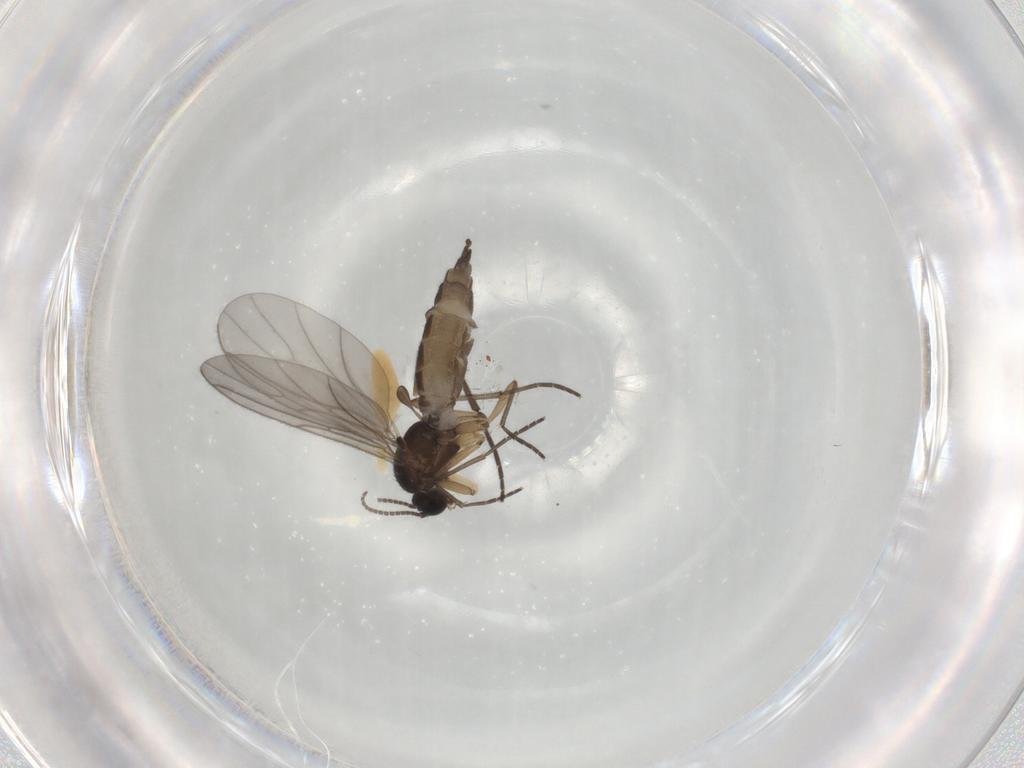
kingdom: Animalia
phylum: Arthropoda
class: Insecta
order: Diptera
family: Sciaridae
